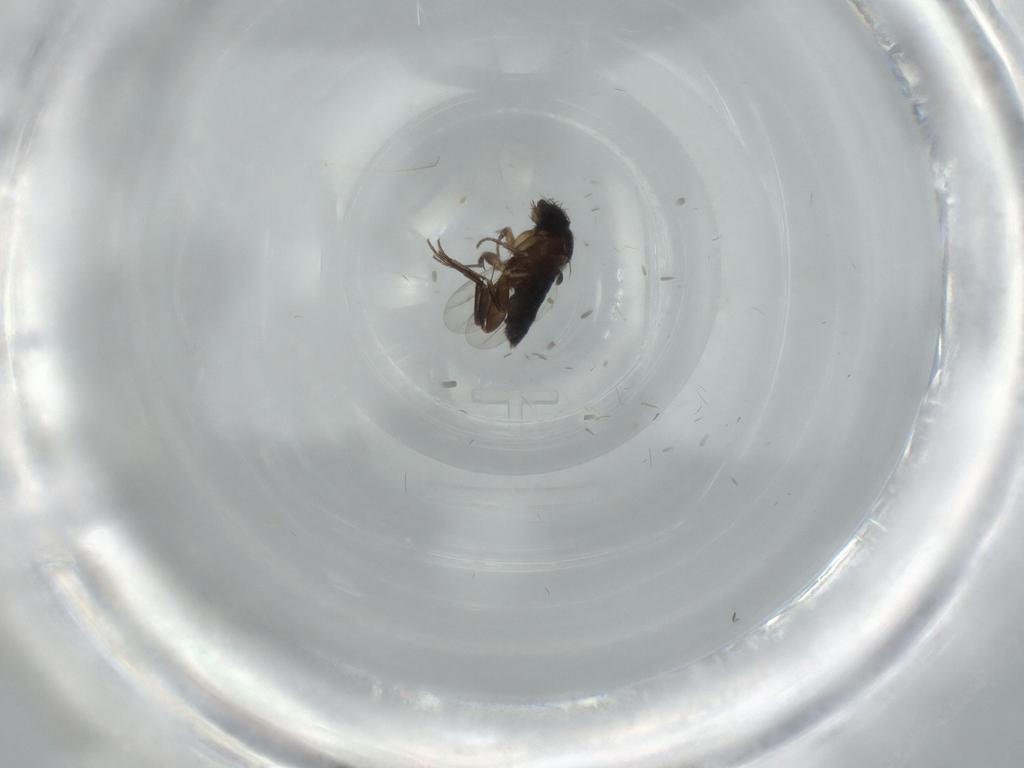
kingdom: Animalia
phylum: Arthropoda
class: Insecta
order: Diptera
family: Phoridae
